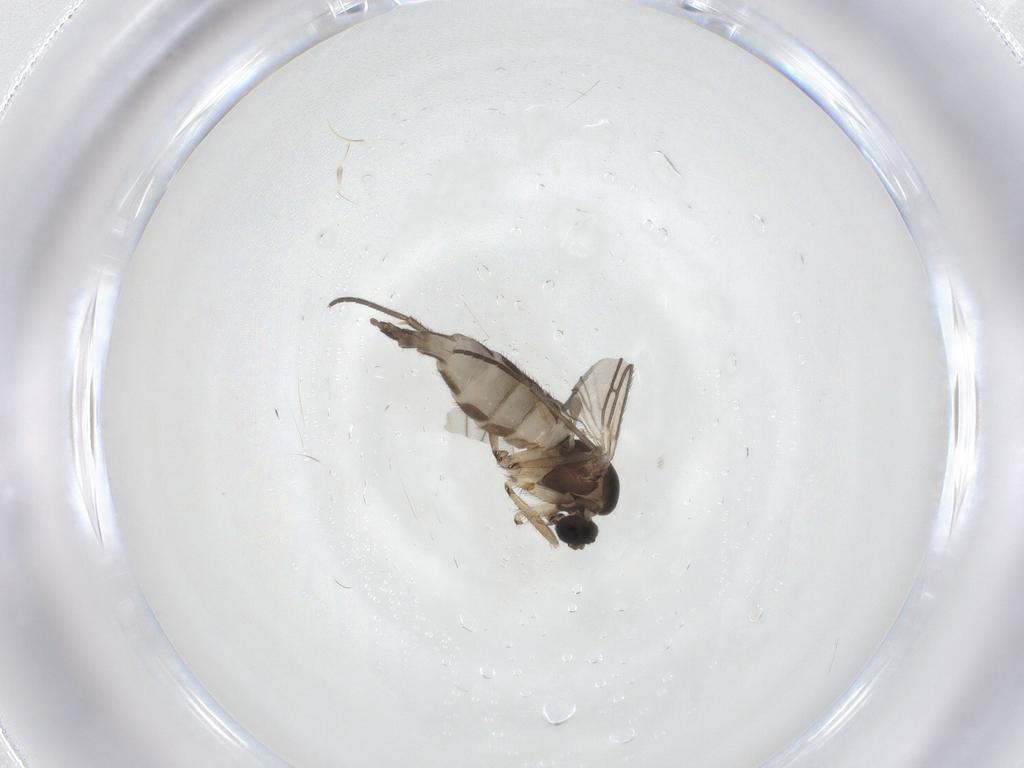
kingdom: Animalia
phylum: Arthropoda
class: Insecta
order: Diptera
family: Sciaridae
